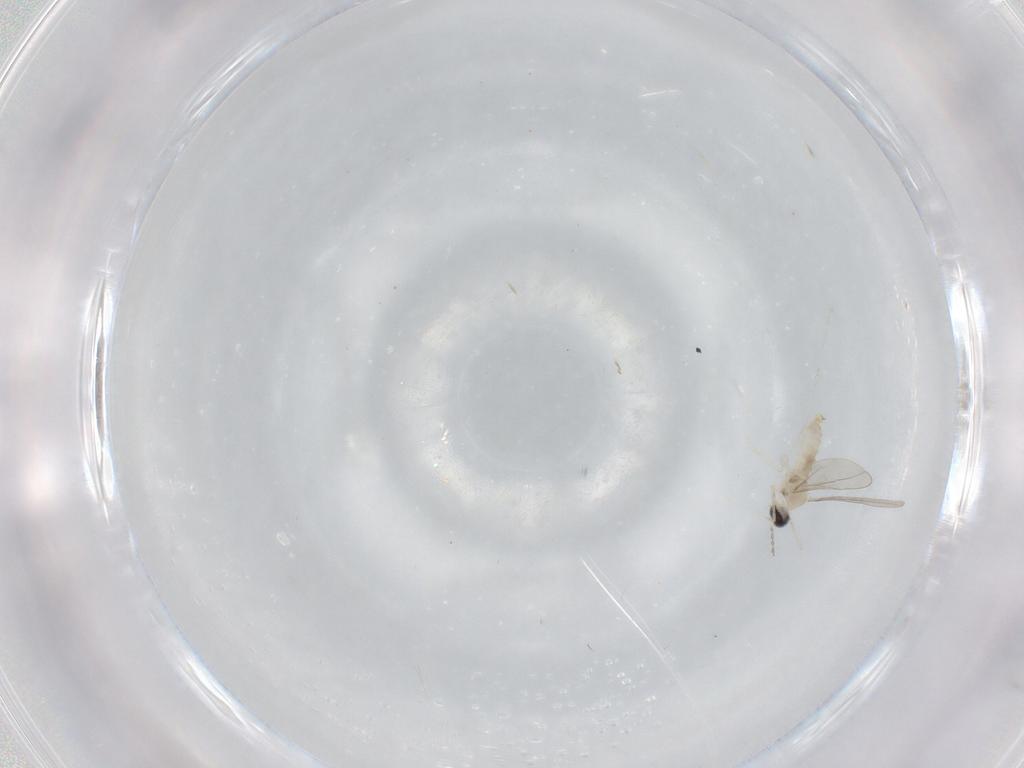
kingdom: Animalia
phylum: Arthropoda
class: Insecta
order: Diptera
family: Cecidomyiidae
